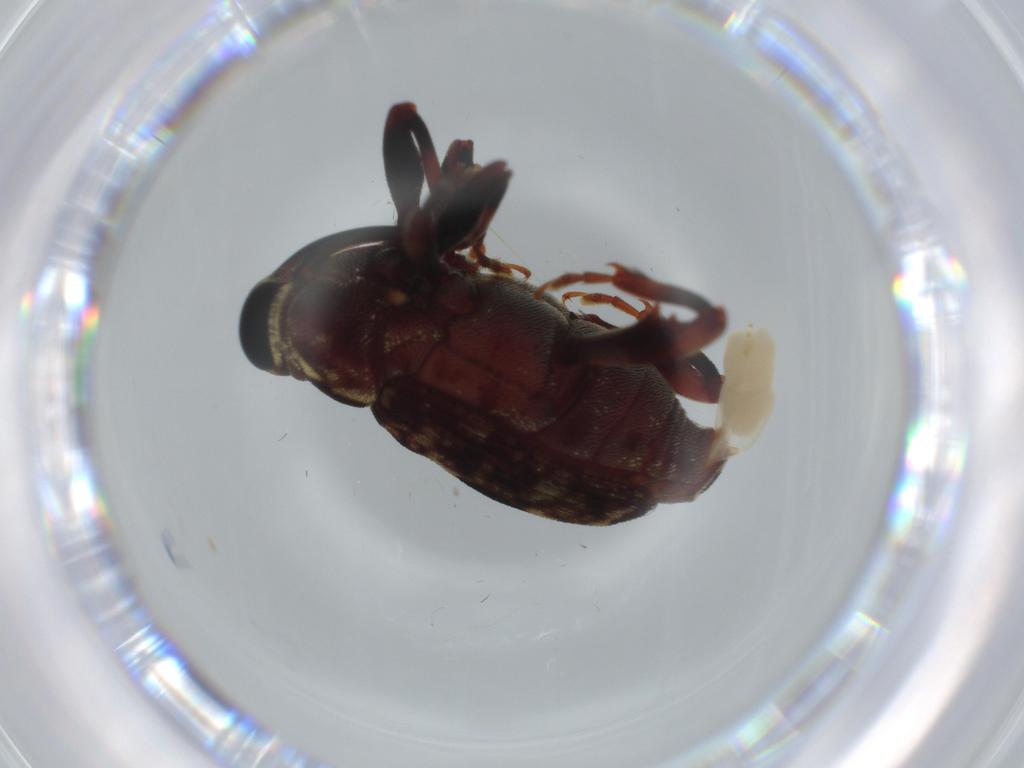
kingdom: Animalia
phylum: Arthropoda
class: Insecta
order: Coleoptera
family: Curculionidae
